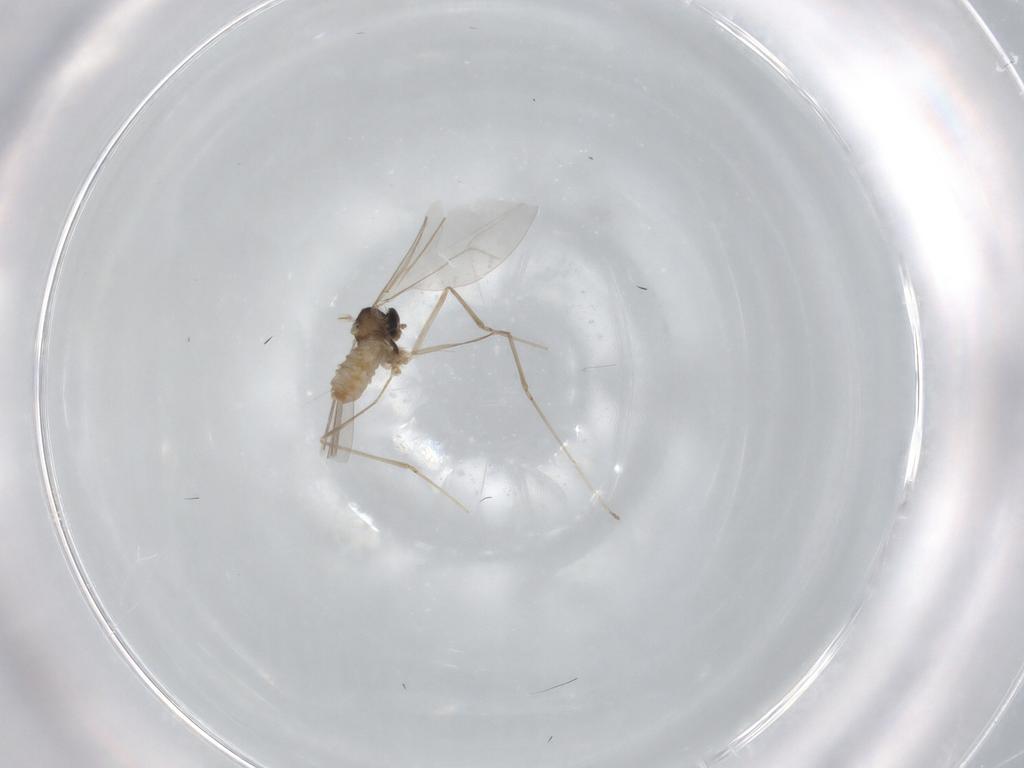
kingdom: Animalia
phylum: Arthropoda
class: Insecta
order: Diptera
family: Cecidomyiidae
